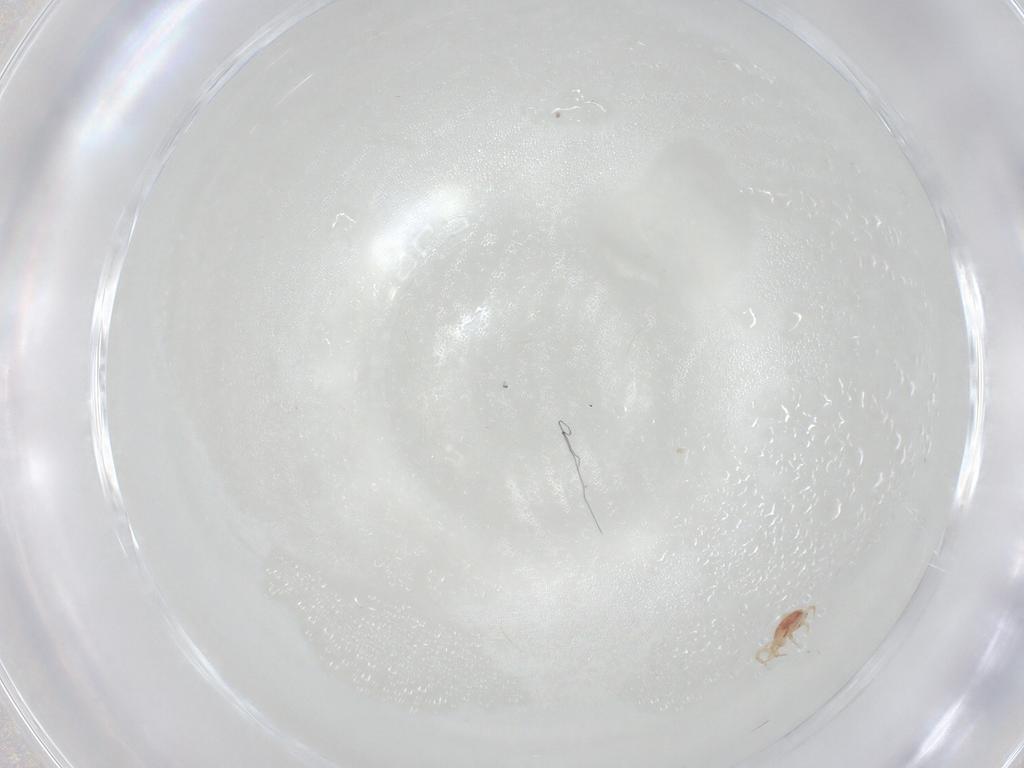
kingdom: Animalia
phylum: Arthropoda
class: Arachnida
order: Mesostigmata
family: Phytoseiidae
